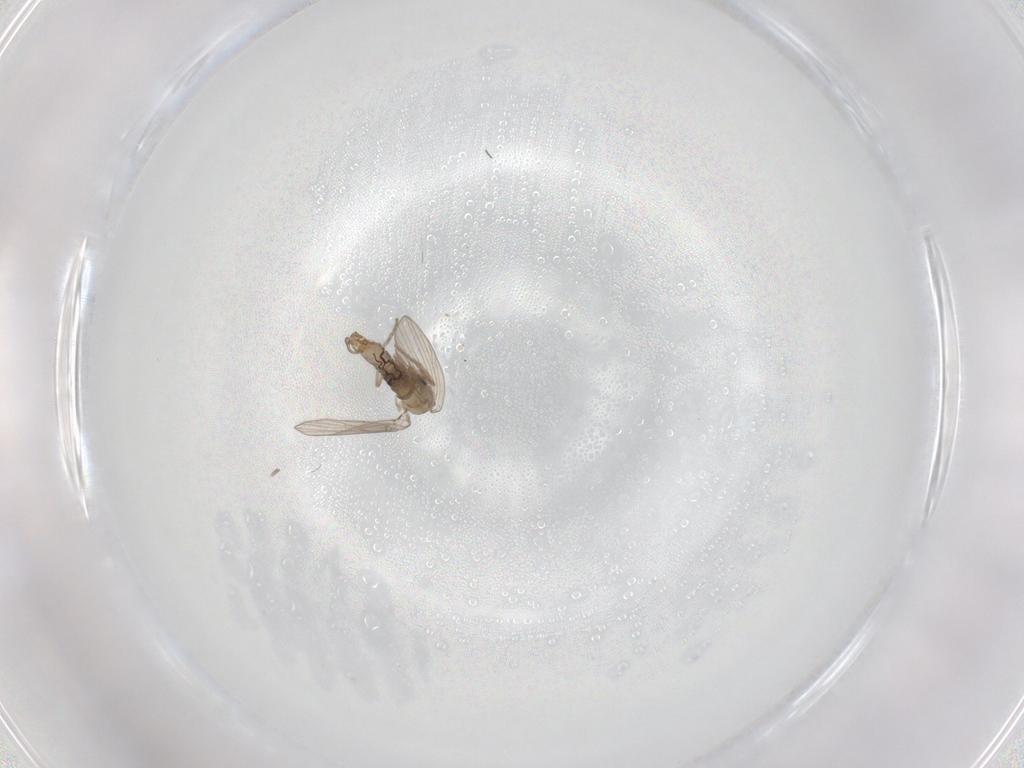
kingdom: Animalia
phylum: Arthropoda
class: Insecta
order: Diptera
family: Psychodidae
